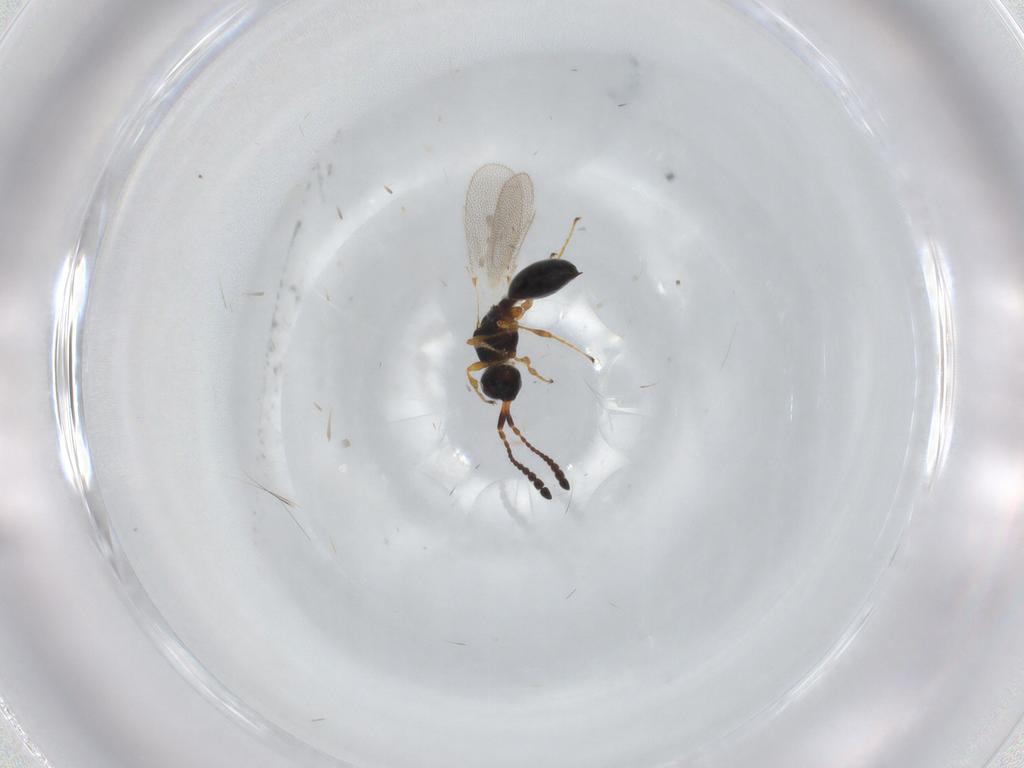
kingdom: Animalia
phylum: Arthropoda
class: Insecta
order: Hymenoptera
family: Diapriidae
